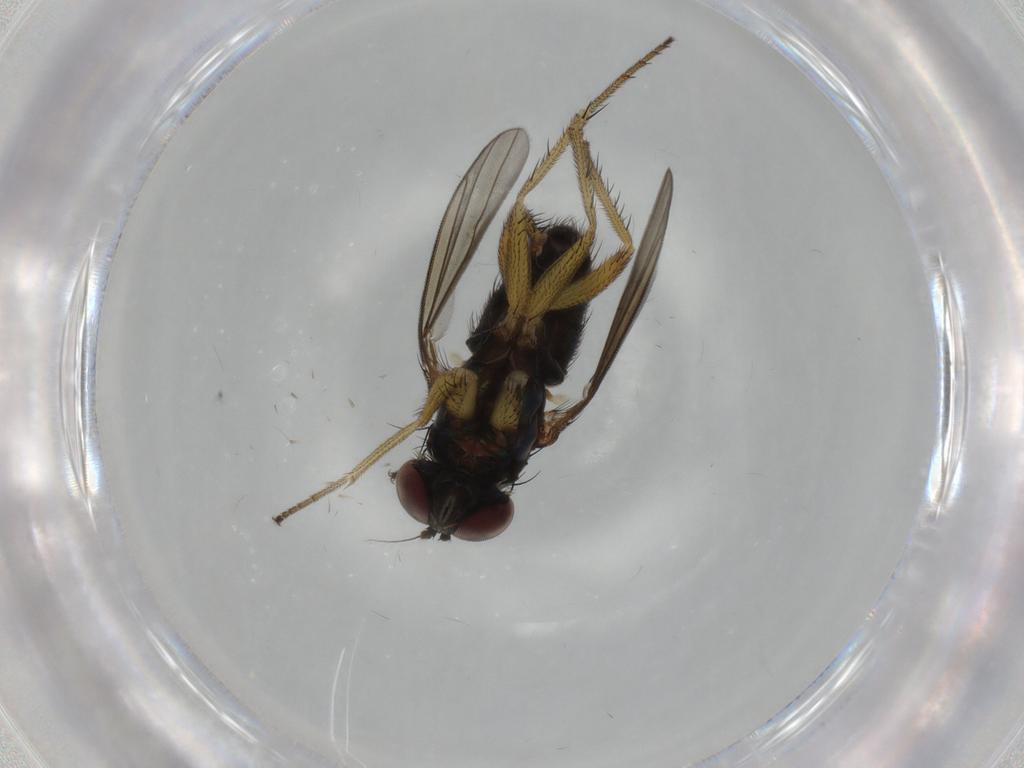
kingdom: Animalia
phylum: Arthropoda
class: Insecta
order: Diptera
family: Dolichopodidae
